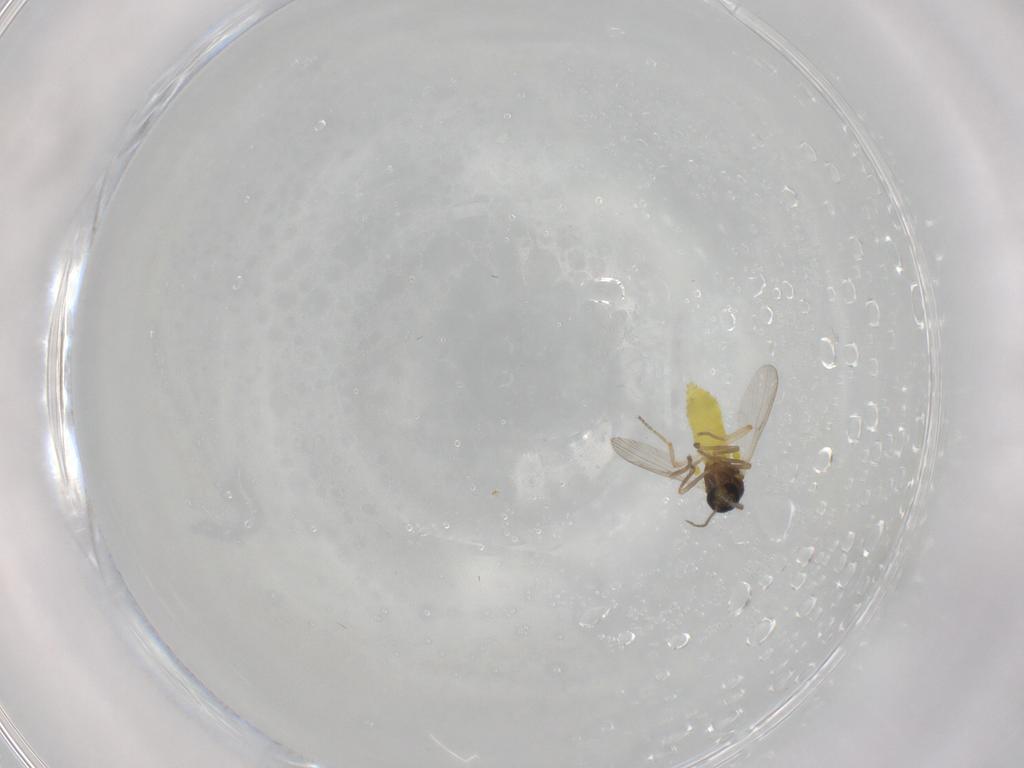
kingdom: Animalia
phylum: Arthropoda
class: Insecta
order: Diptera
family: Ceratopogonidae
